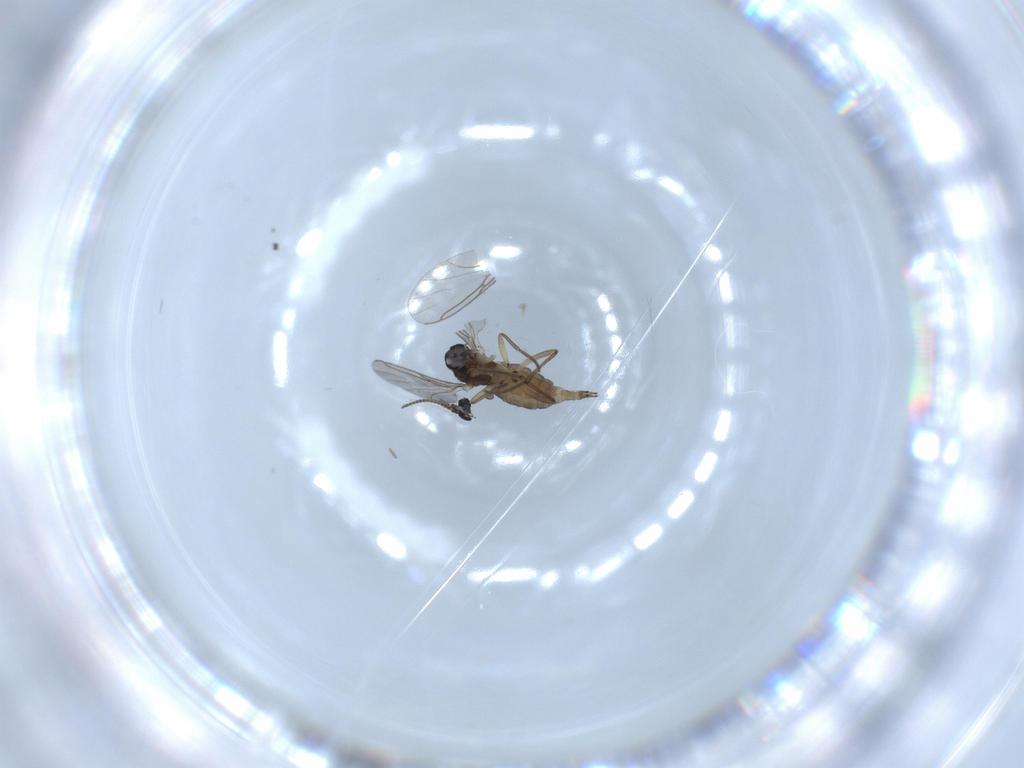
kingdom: Animalia
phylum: Arthropoda
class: Insecta
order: Diptera
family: Sciaridae
